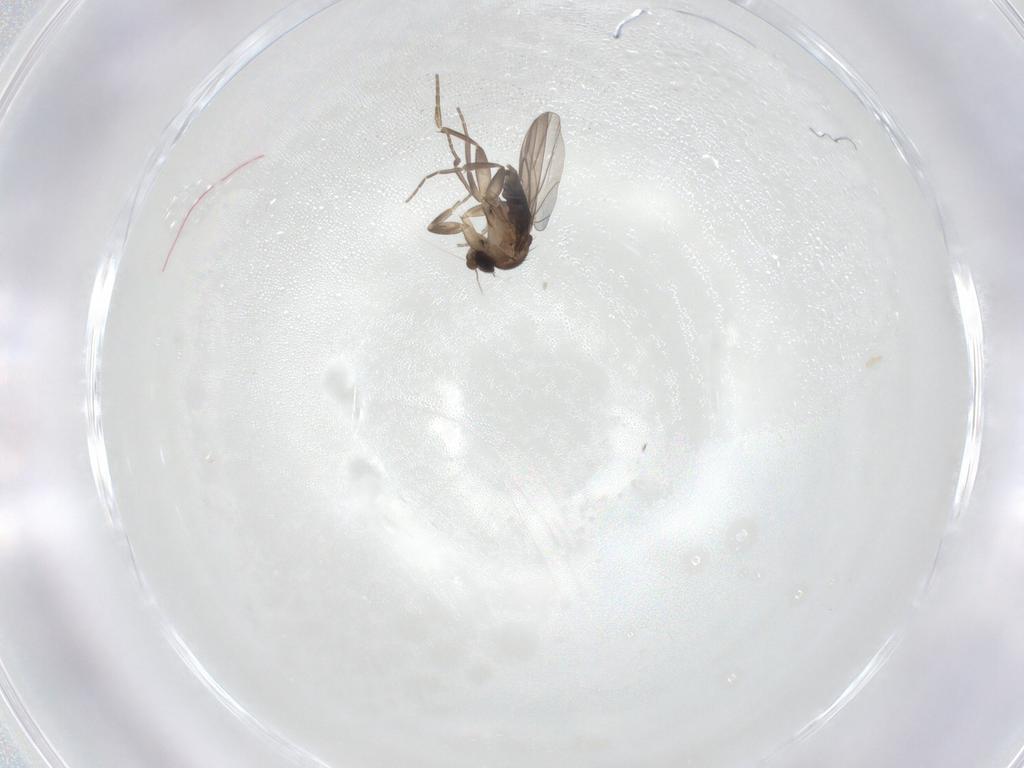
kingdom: Animalia
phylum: Arthropoda
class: Insecta
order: Diptera
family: Phoridae
